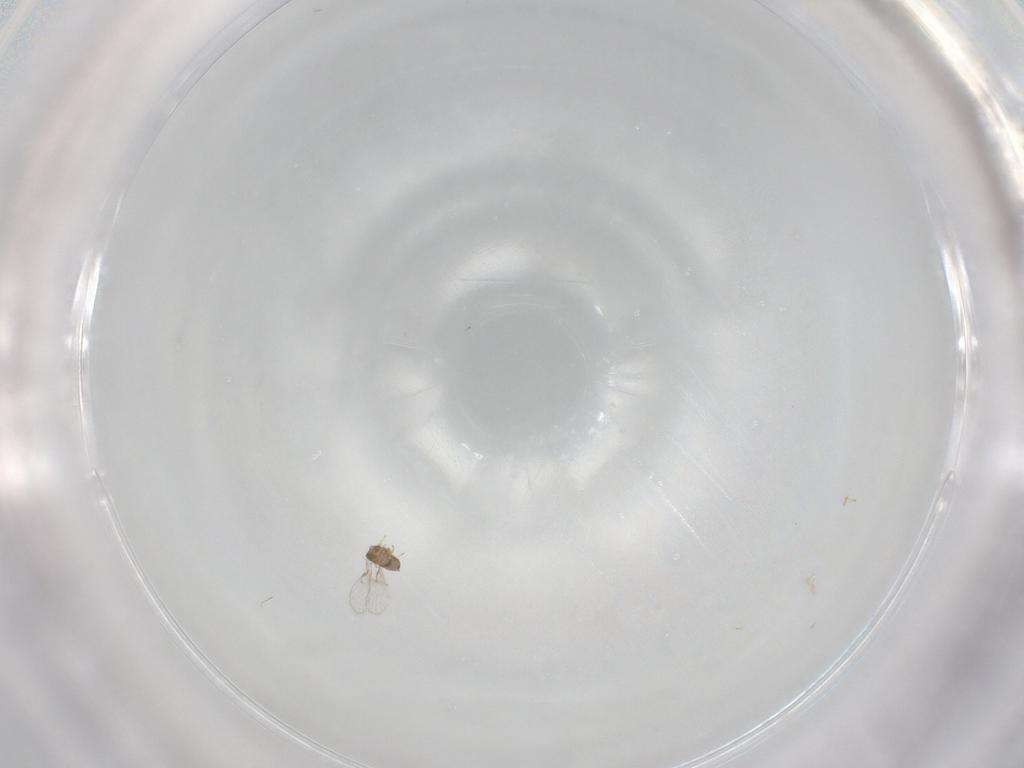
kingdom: Animalia
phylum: Arthropoda
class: Insecta
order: Hymenoptera
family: Trichogrammatidae
